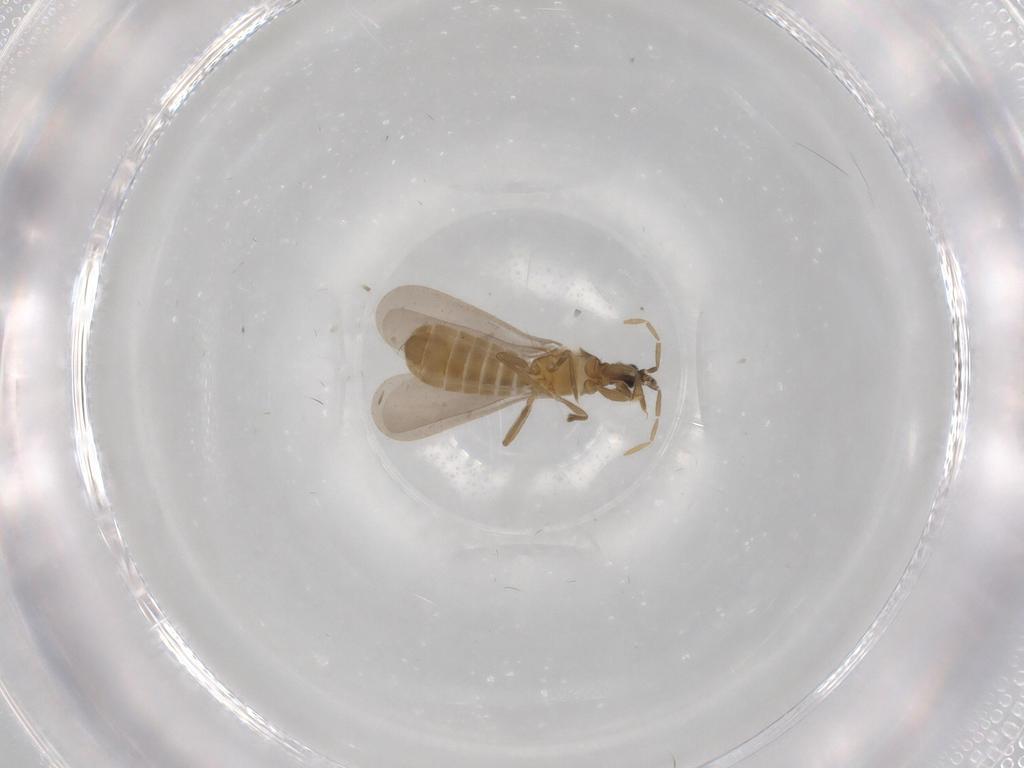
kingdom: Animalia
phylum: Arthropoda
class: Insecta
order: Hemiptera
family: Enicocephalidae
